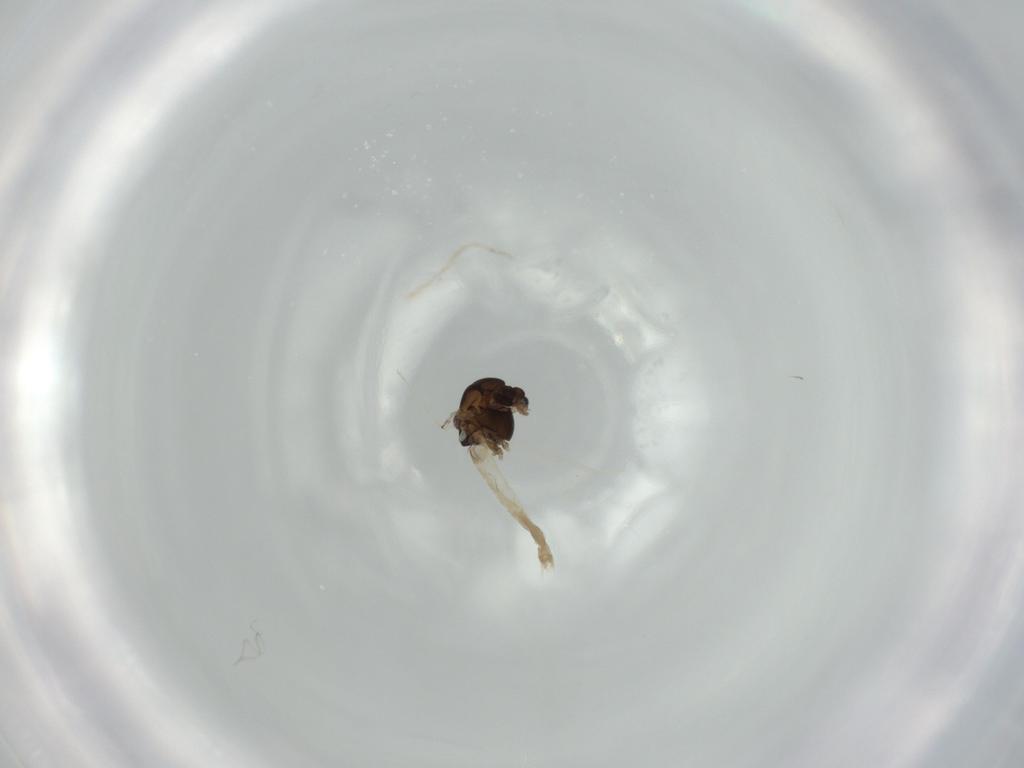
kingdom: Animalia
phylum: Arthropoda
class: Insecta
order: Diptera
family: Chironomidae
